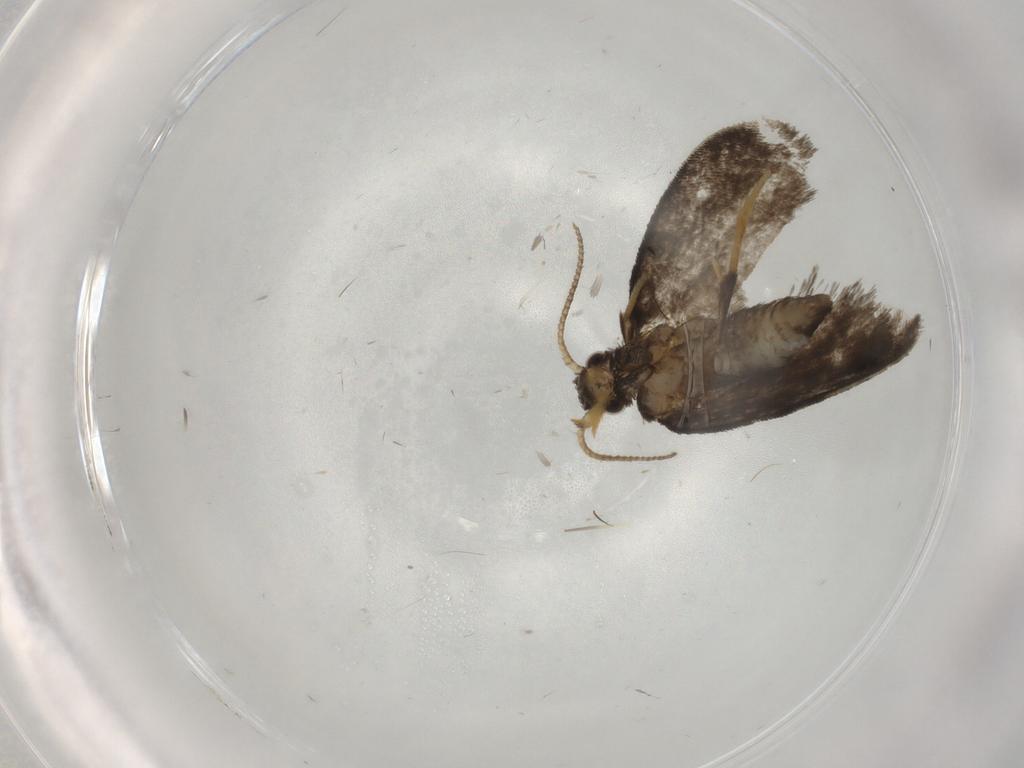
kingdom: Animalia
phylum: Arthropoda
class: Insecta
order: Lepidoptera
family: Psychidae
